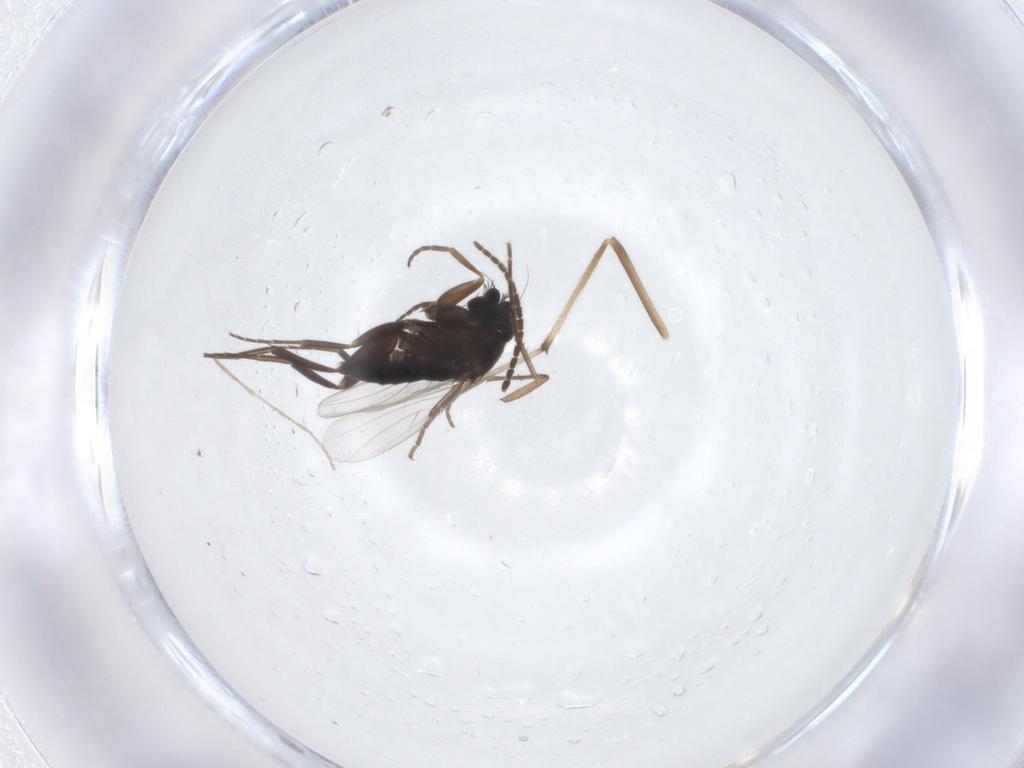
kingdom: Animalia
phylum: Arthropoda
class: Insecta
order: Diptera
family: Phoridae
